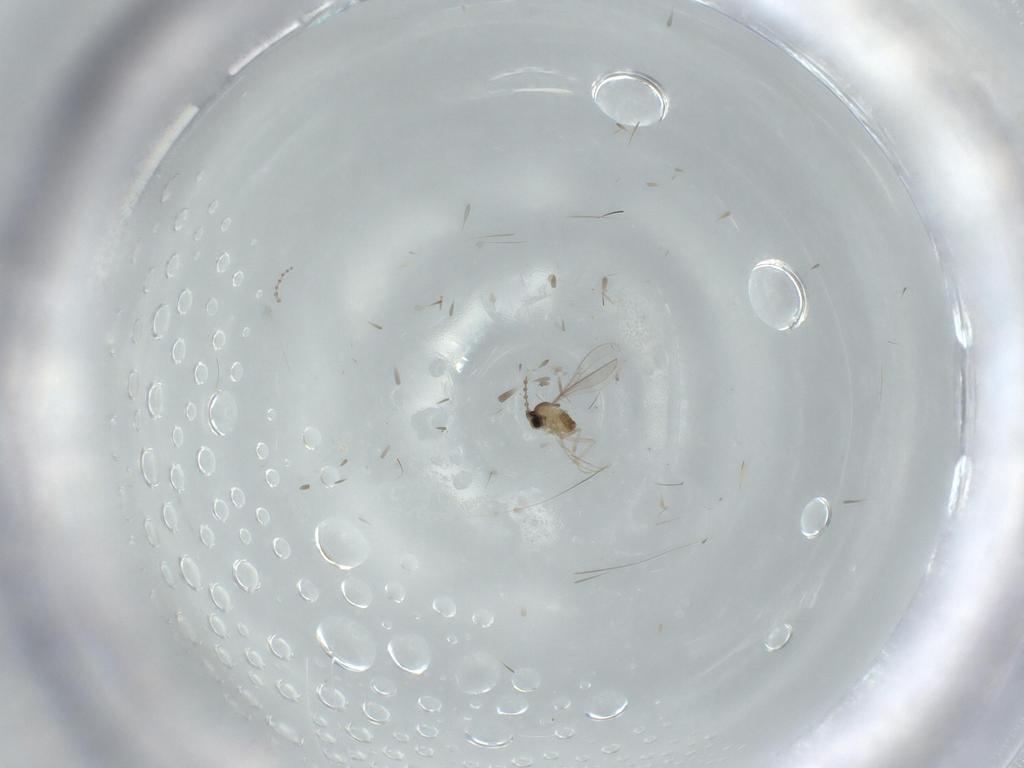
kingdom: Animalia
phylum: Arthropoda
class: Insecta
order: Diptera
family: Cecidomyiidae
